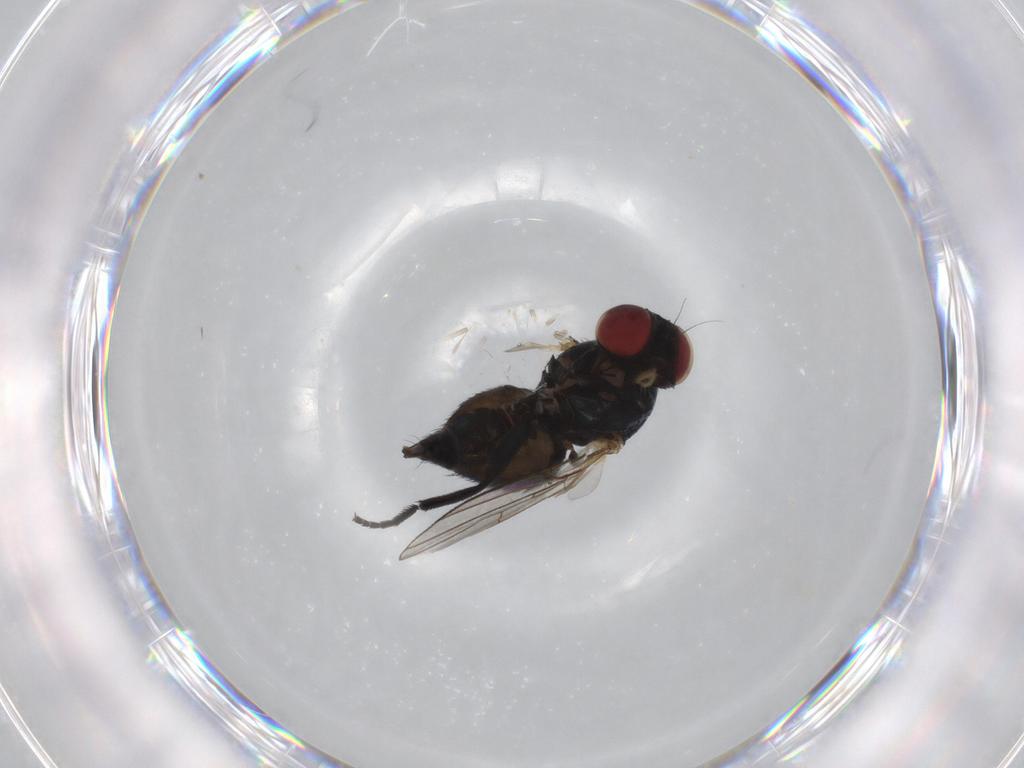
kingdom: Animalia
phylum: Arthropoda
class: Insecta
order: Diptera
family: Agromyzidae
